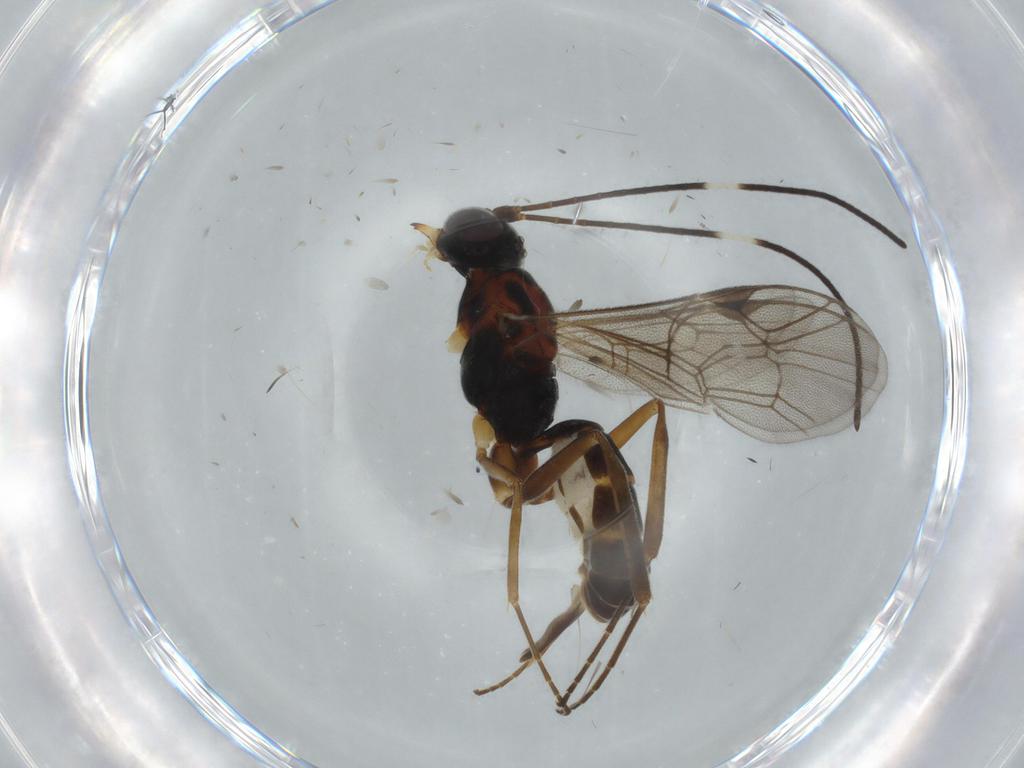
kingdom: Animalia
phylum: Arthropoda
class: Insecta
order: Hymenoptera
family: Ichneumonidae
